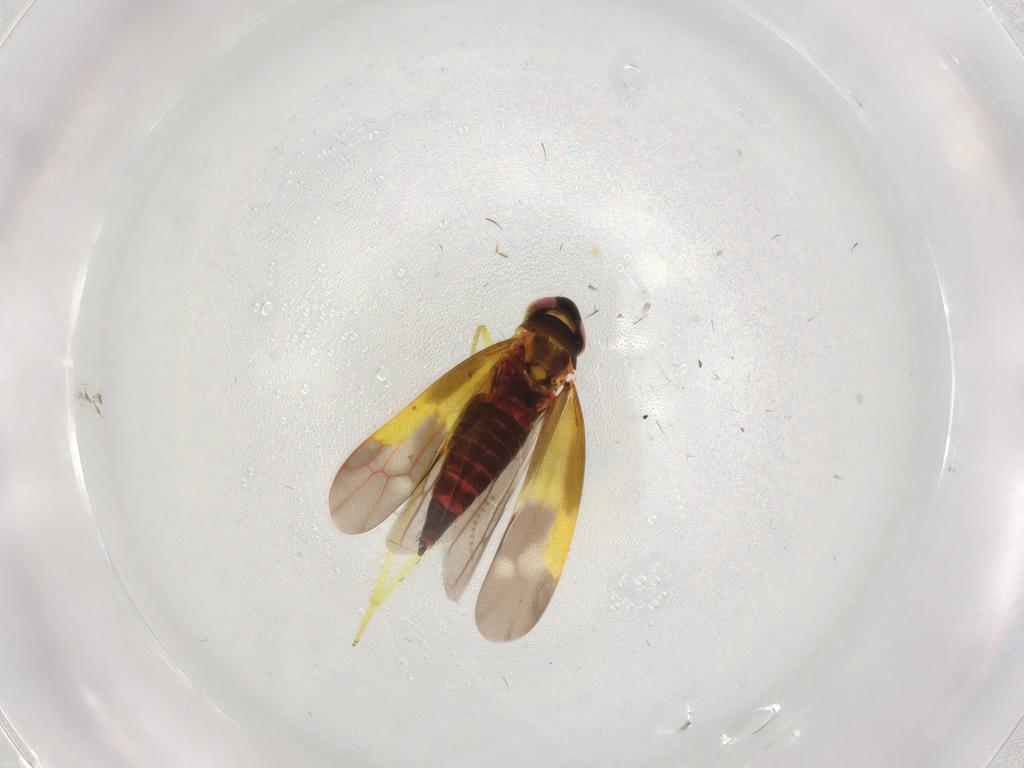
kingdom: Animalia
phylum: Arthropoda
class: Insecta
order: Hemiptera
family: Cicadellidae
